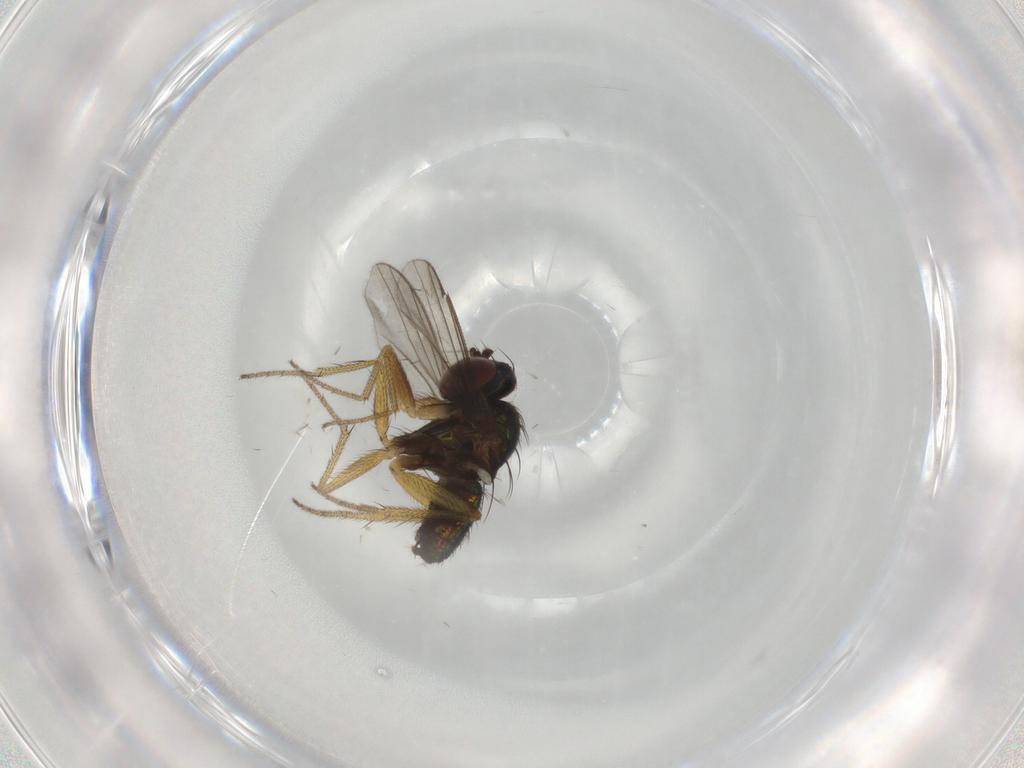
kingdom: Animalia
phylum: Arthropoda
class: Insecta
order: Diptera
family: Dolichopodidae
